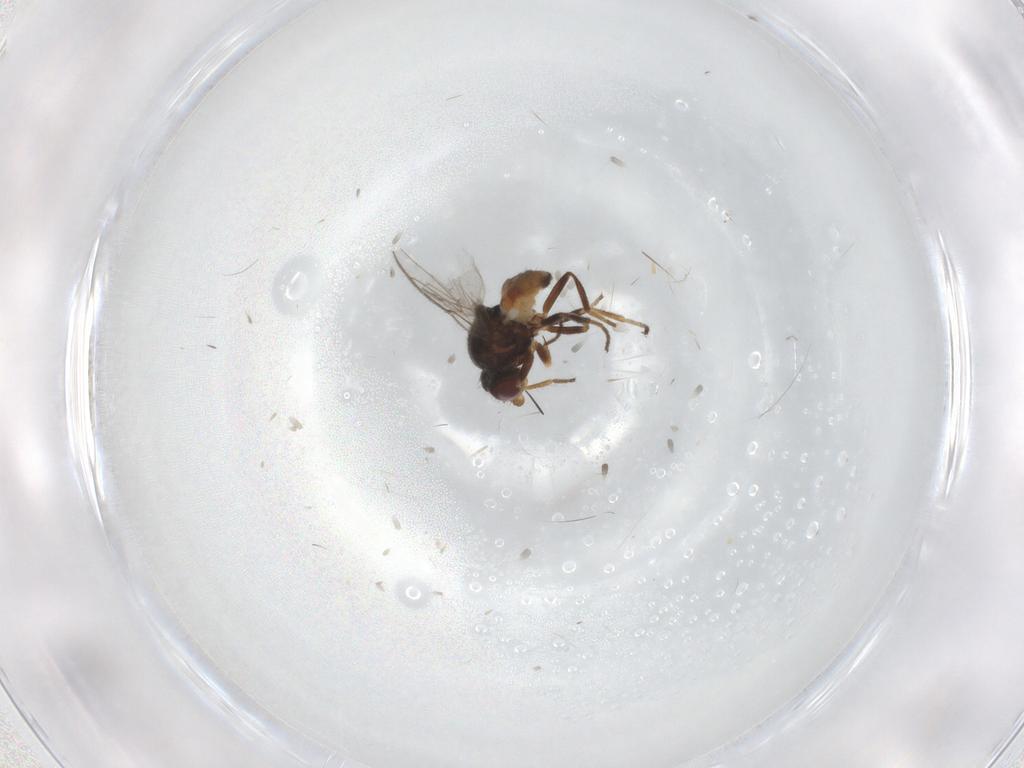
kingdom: Animalia
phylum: Arthropoda
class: Insecta
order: Diptera
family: Chloropidae
